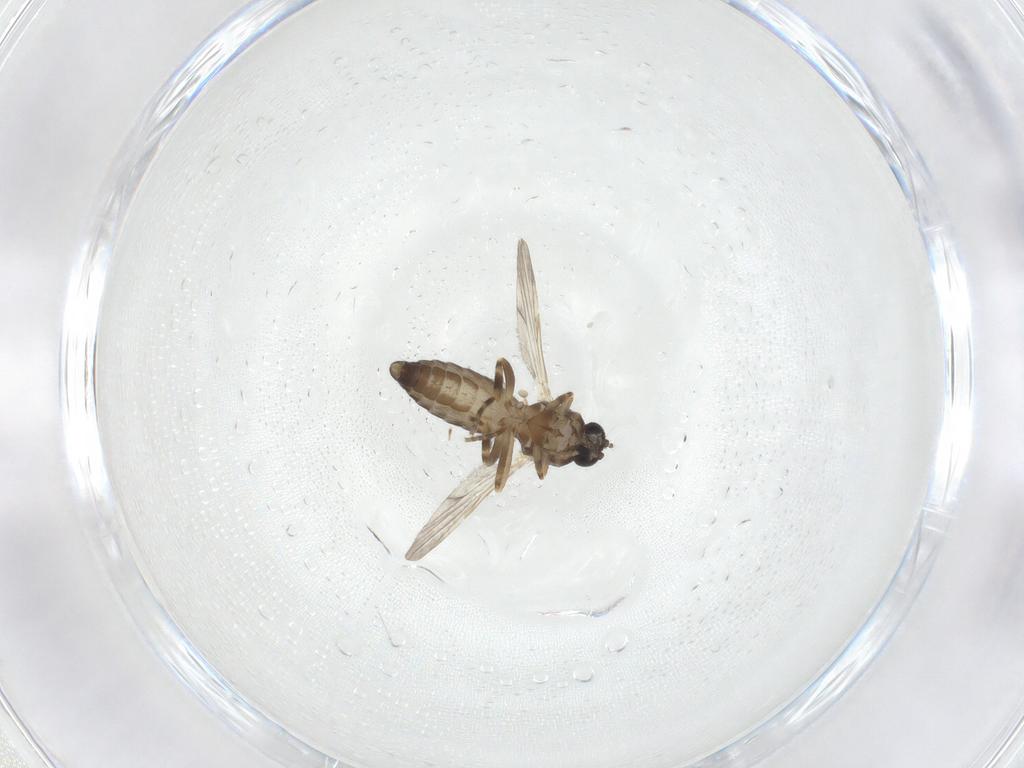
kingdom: Animalia
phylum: Arthropoda
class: Insecta
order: Diptera
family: Ceratopogonidae
